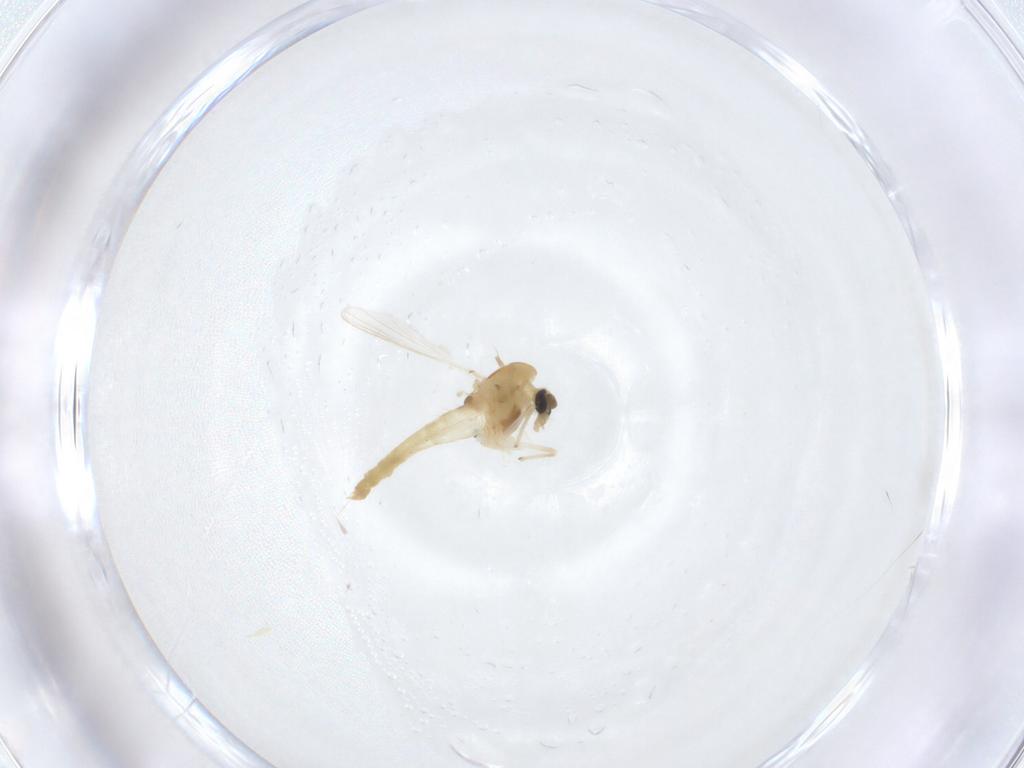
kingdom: Animalia
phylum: Arthropoda
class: Insecta
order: Diptera
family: Chironomidae
